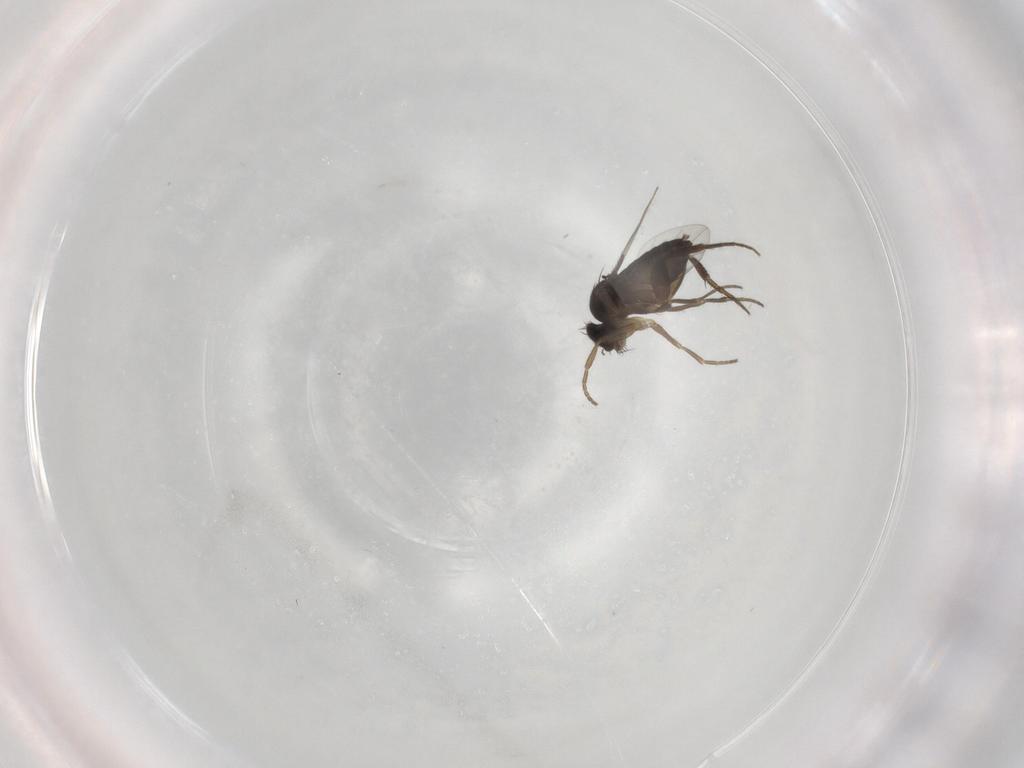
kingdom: Animalia
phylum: Arthropoda
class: Insecta
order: Diptera
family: Phoridae
